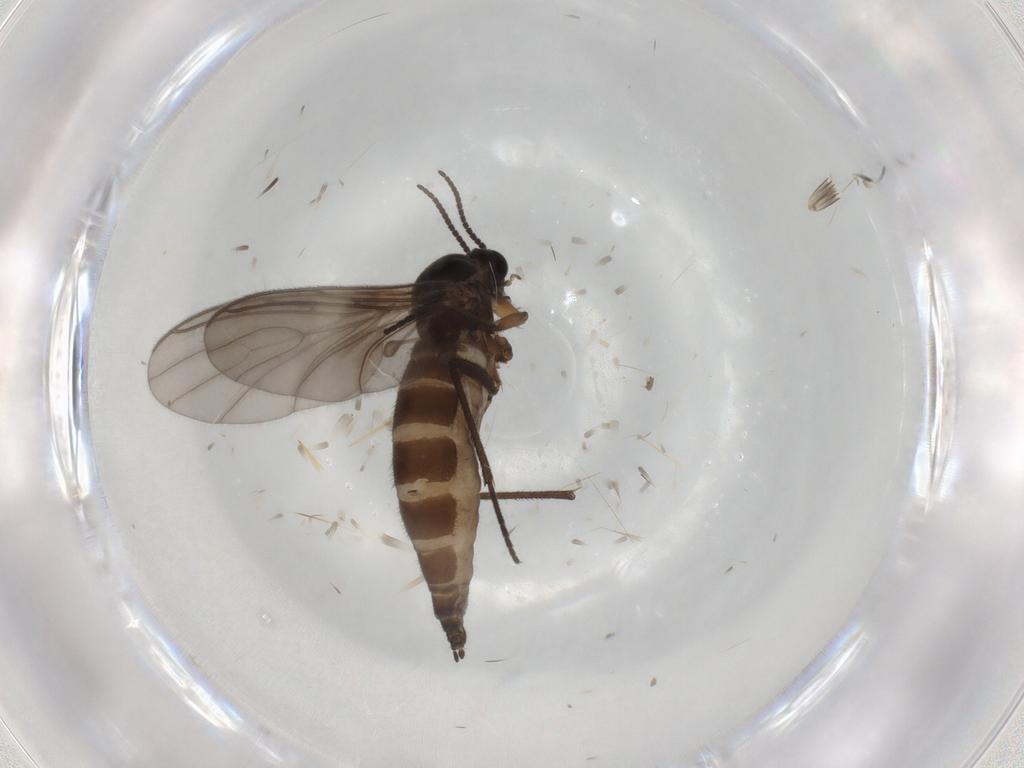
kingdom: Animalia
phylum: Arthropoda
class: Insecta
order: Diptera
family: Sciaridae
